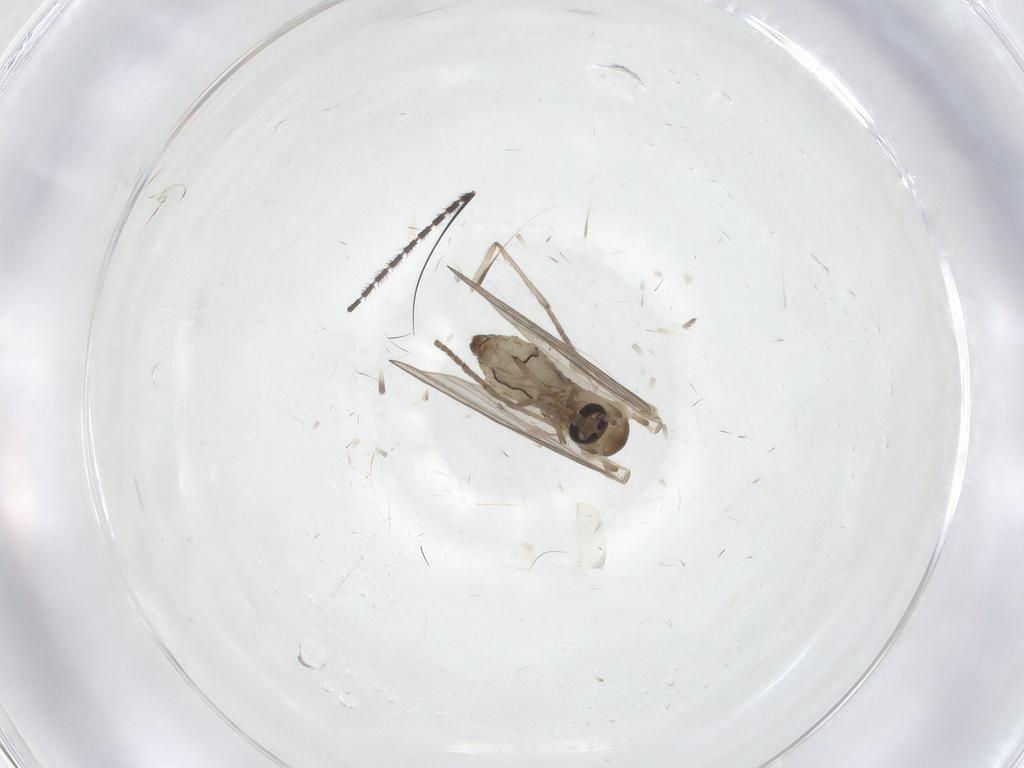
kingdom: Animalia
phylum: Arthropoda
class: Insecta
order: Diptera
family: Psychodidae
